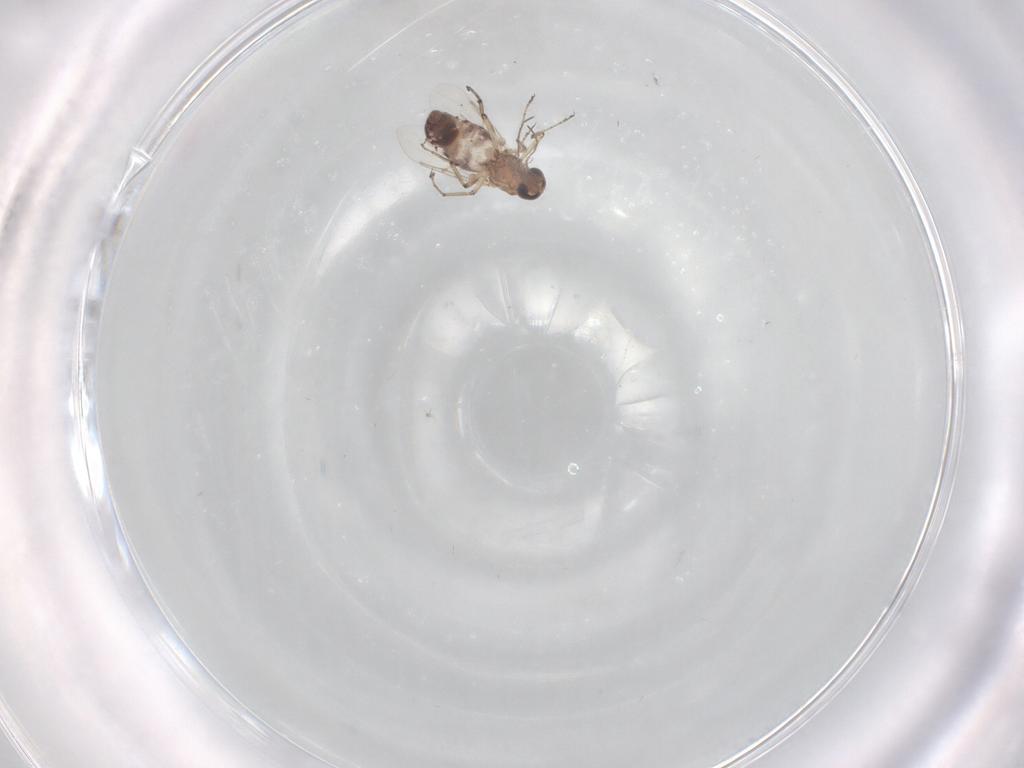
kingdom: Animalia
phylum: Arthropoda
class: Insecta
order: Diptera
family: Ceratopogonidae
